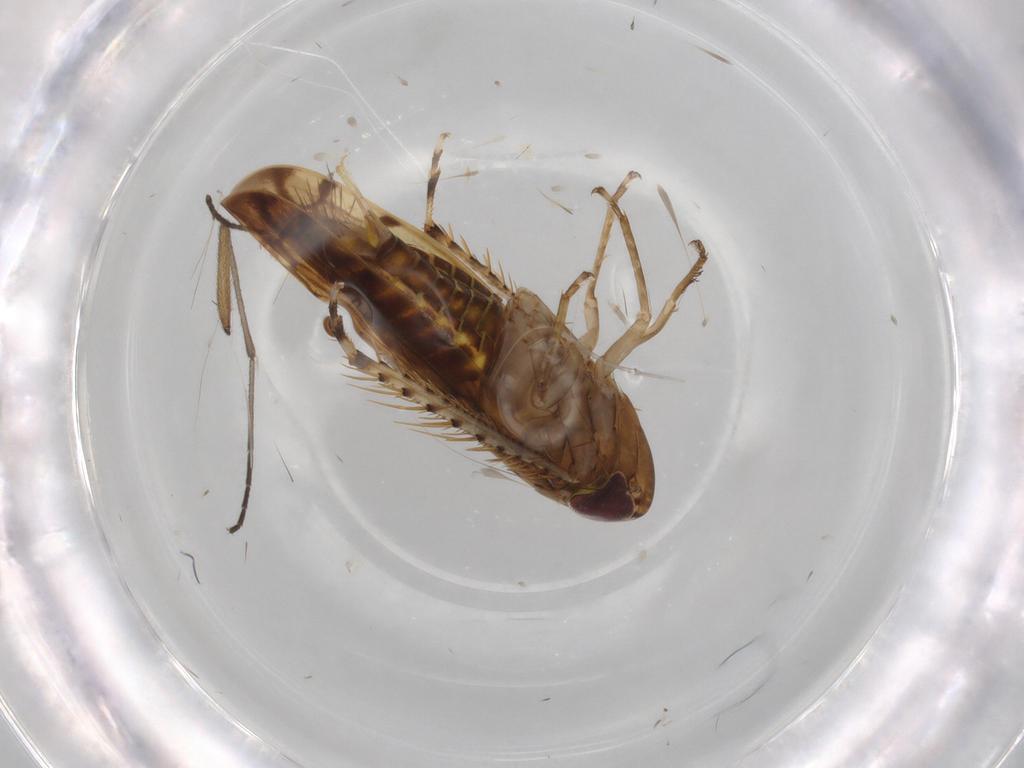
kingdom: Animalia
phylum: Arthropoda
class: Insecta
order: Hemiptera
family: Cicadellidae
